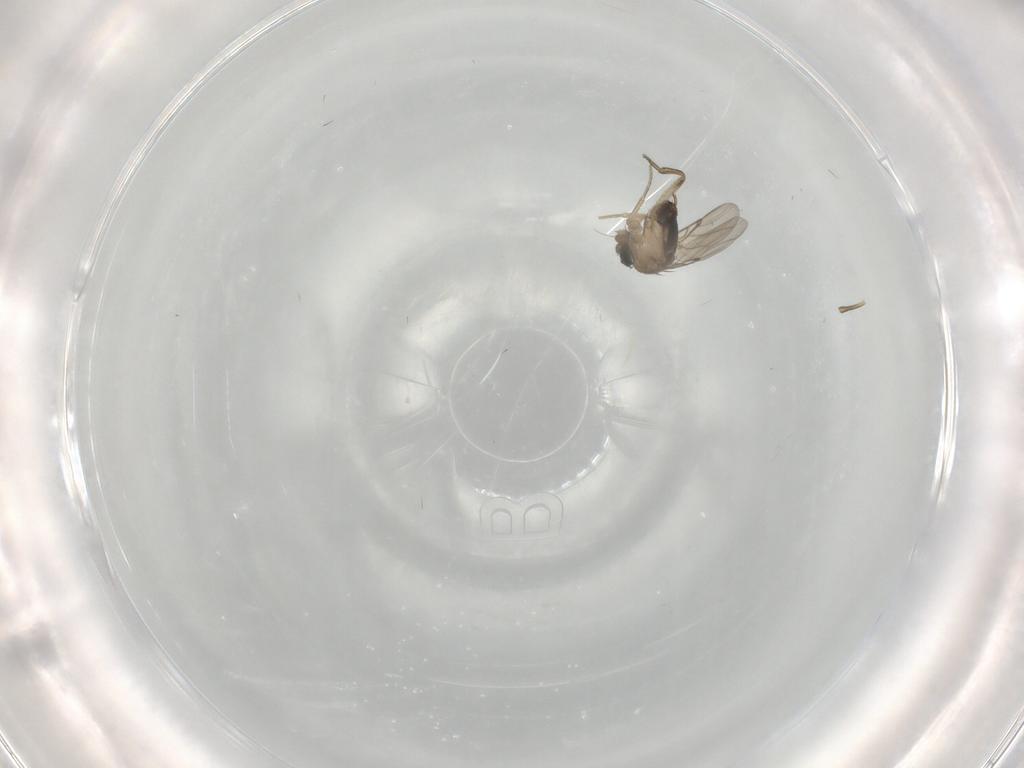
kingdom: Animalia
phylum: Arthropoda
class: Insecta
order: Diptera
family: Phoridae
